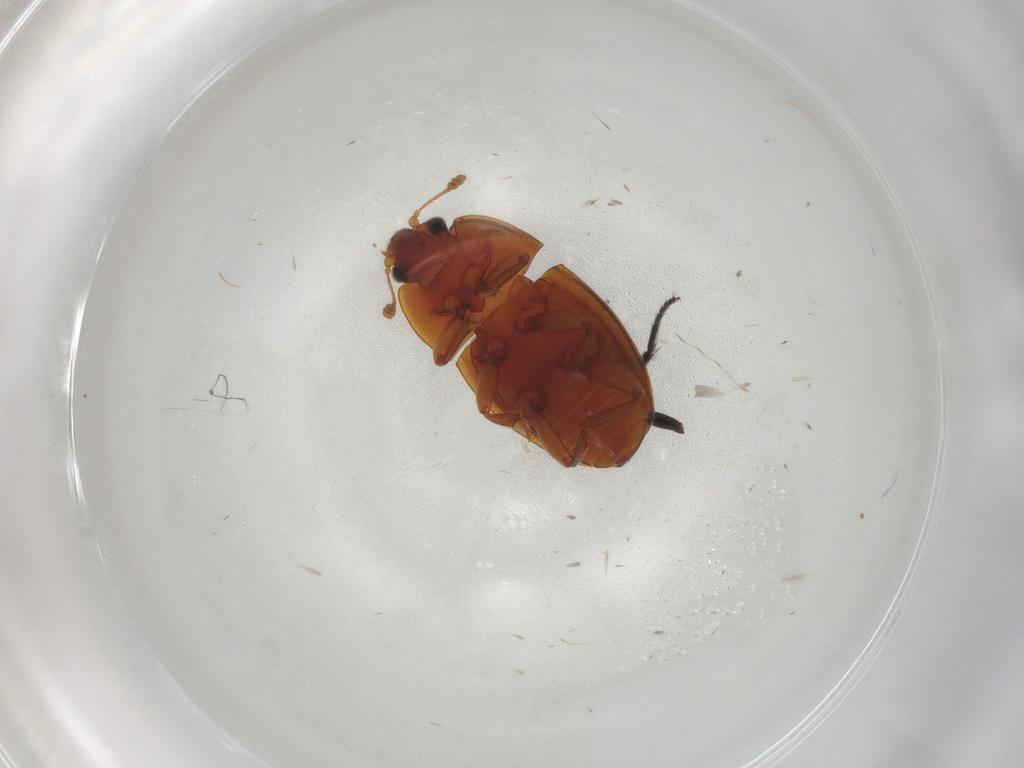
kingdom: Animalia
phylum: Arthropoda
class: Insecta
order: Coleoptera
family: Nitidulidae
